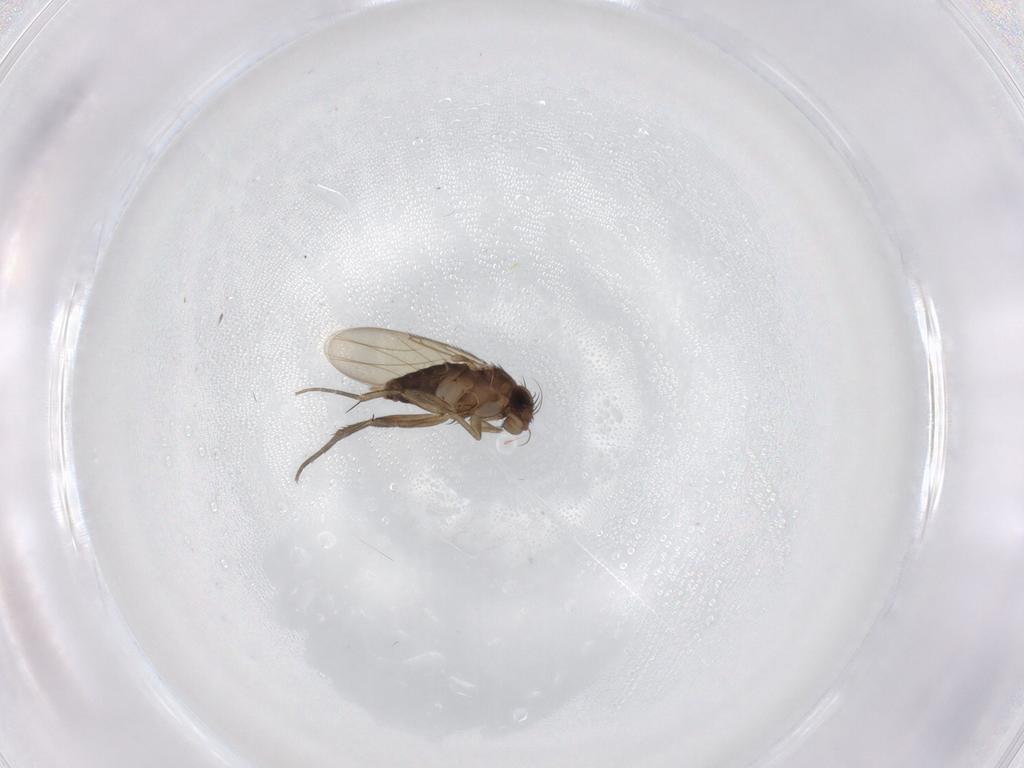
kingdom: Animalia
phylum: Arthropoda
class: Insecta
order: Diptera
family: Phoridae
